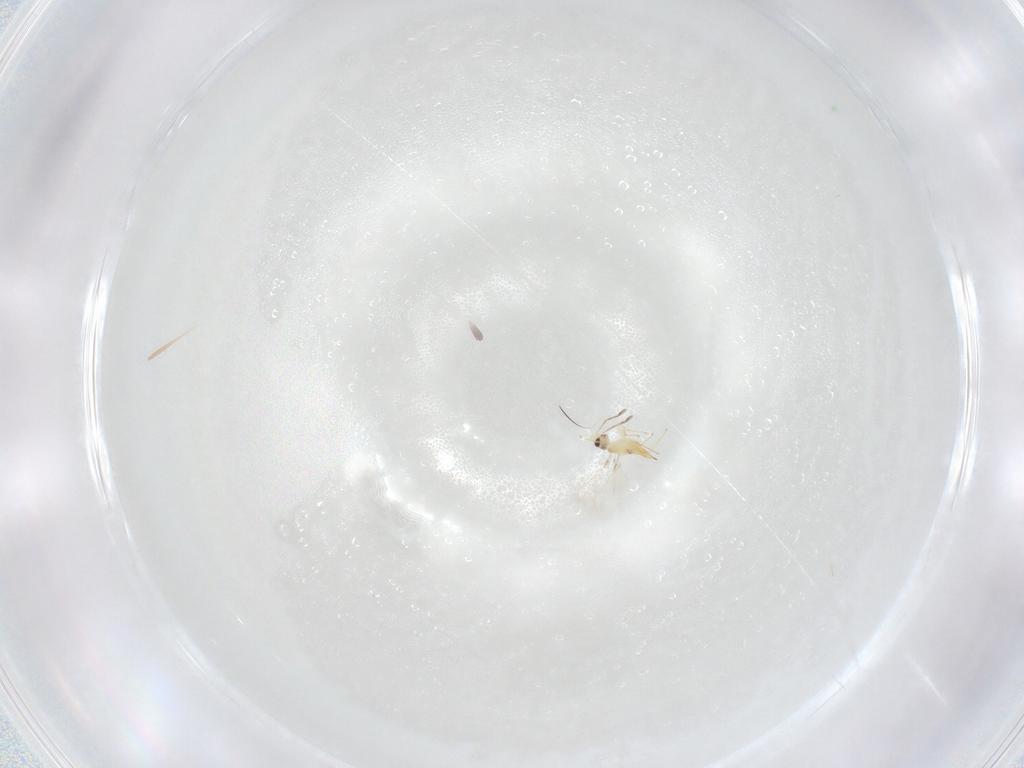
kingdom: Animalia
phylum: Arthropoda
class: Insecta
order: Hymenoptera
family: Mymaridae
